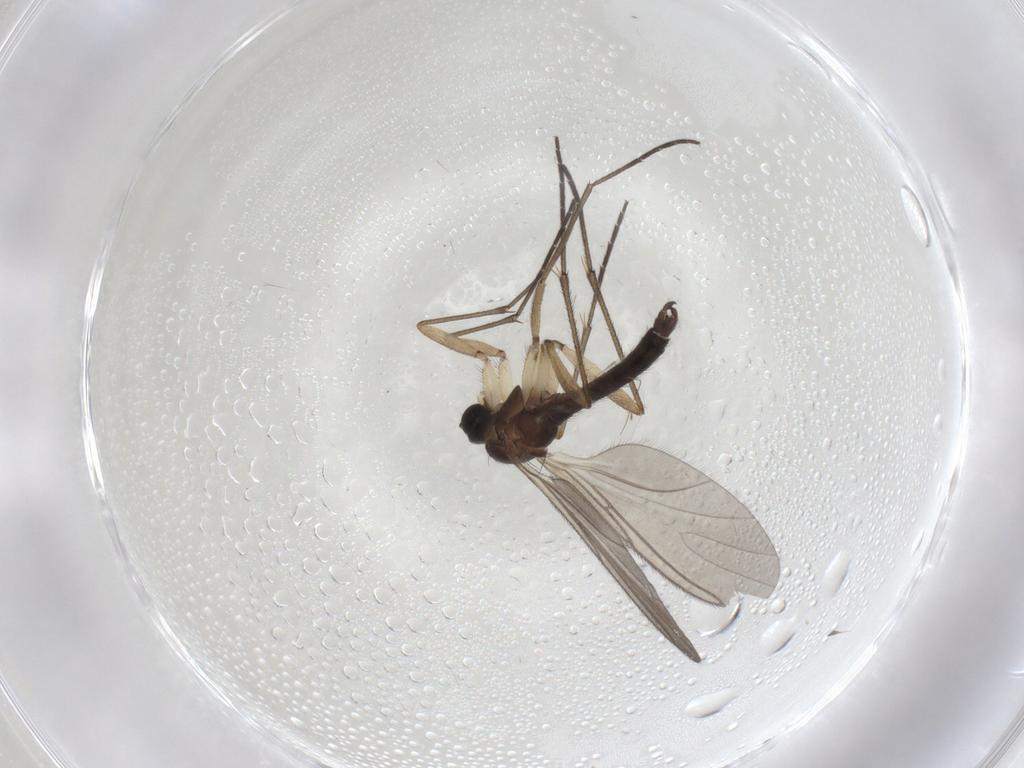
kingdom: Animalia
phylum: Arthropoda
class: Insecta
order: Diptera
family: Sciaridae
